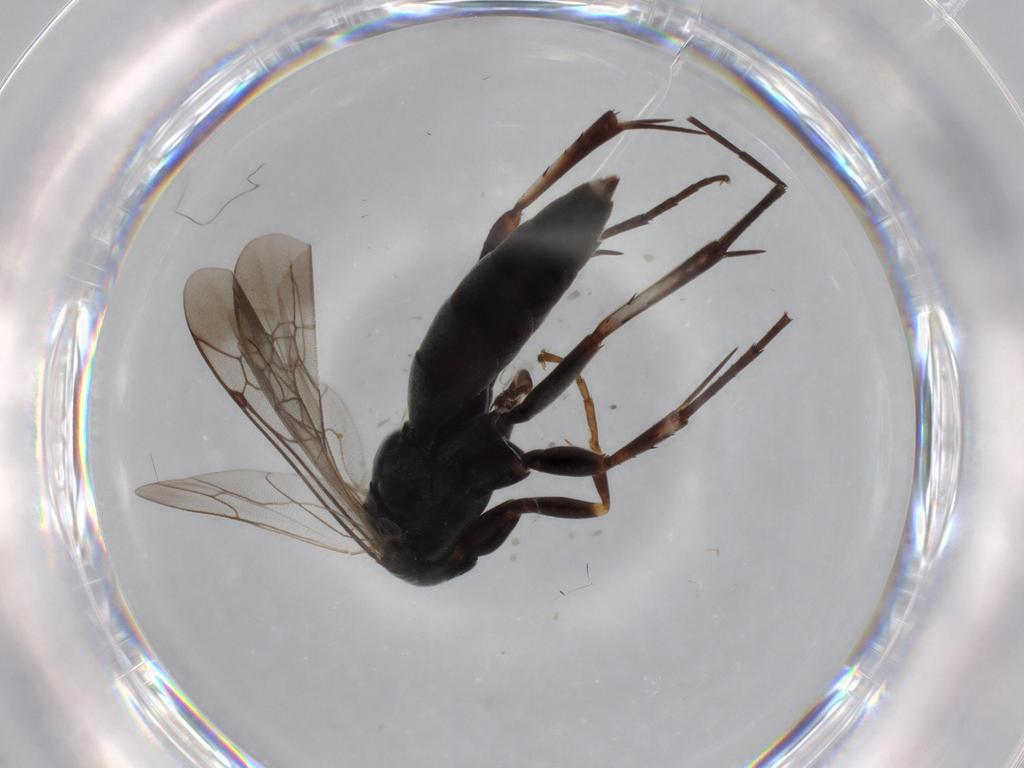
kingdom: Animalia
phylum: Arthropoda
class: Insecta
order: Hymenoptera
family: Pompilidae
